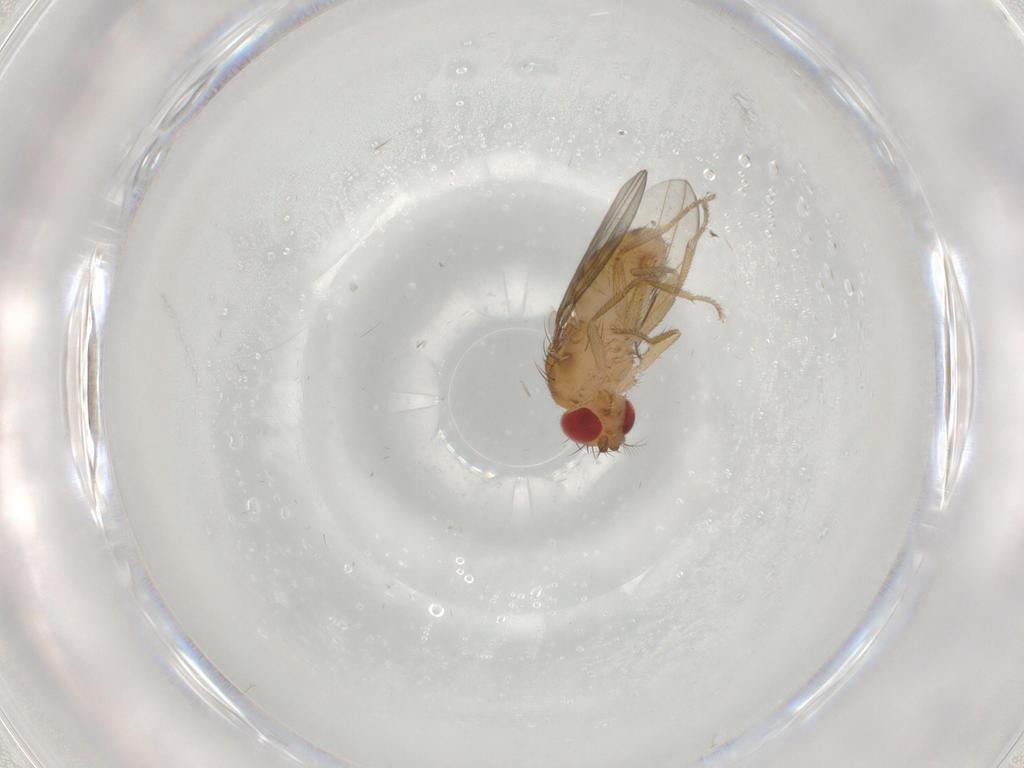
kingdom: Animalia
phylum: Arthropoda
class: Insecta
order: Diptera
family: Drosophilidae
